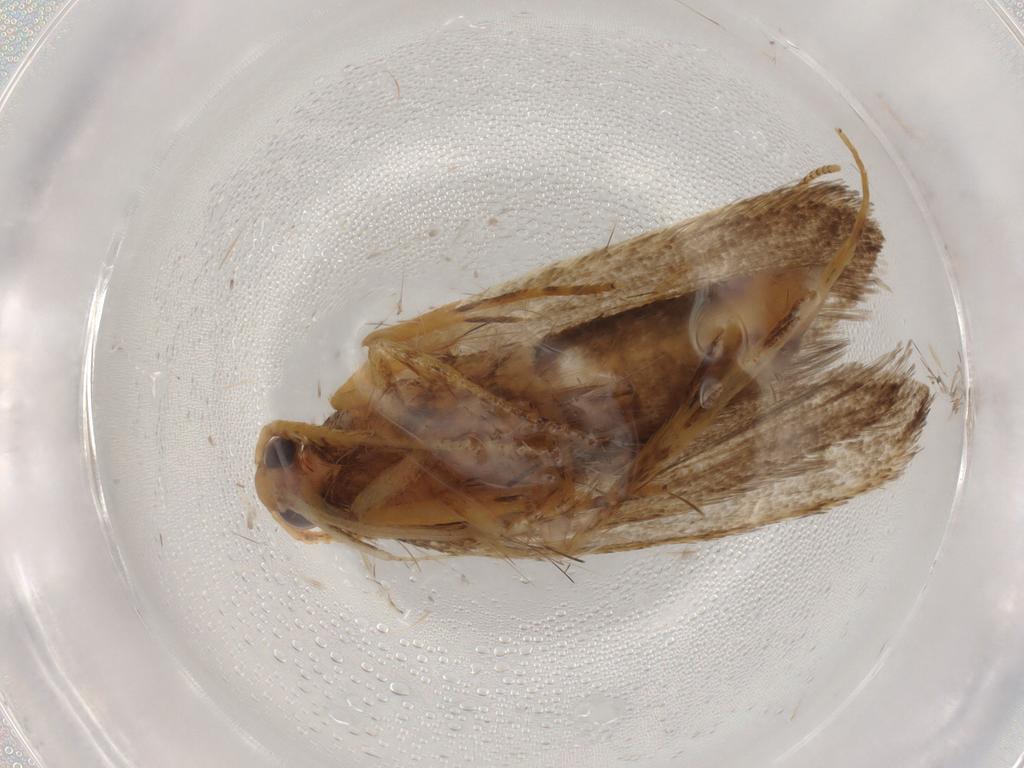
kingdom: Animalia
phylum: Arthropoda
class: Insecta
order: Lepidoptera
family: Lecithoceridae
